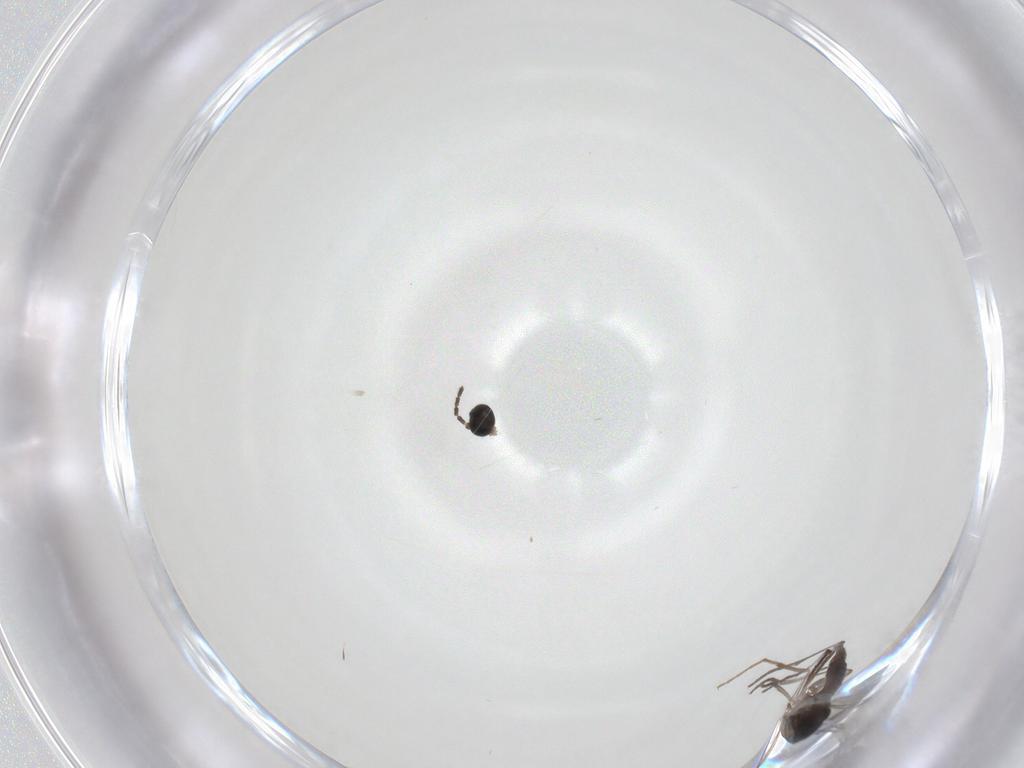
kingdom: Animalia
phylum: Arthropoda
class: Insecta
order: Diptera
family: Sciaridae
